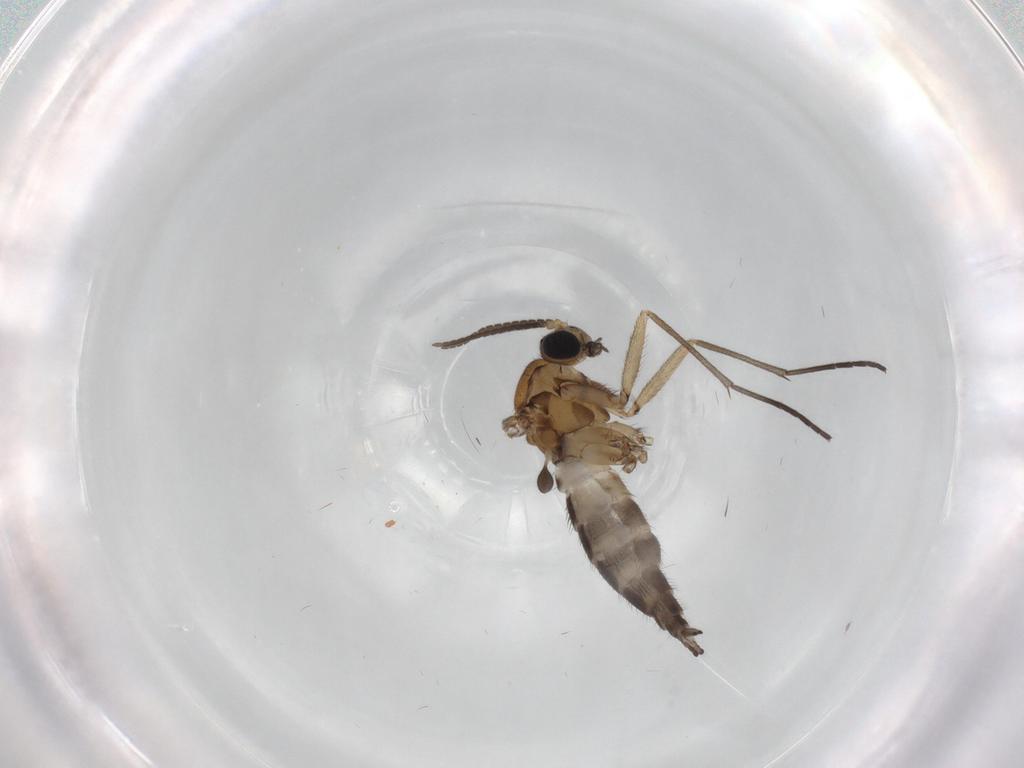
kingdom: Animalia
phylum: Arthropoda
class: Insecta
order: Diptera
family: Sciaridae
